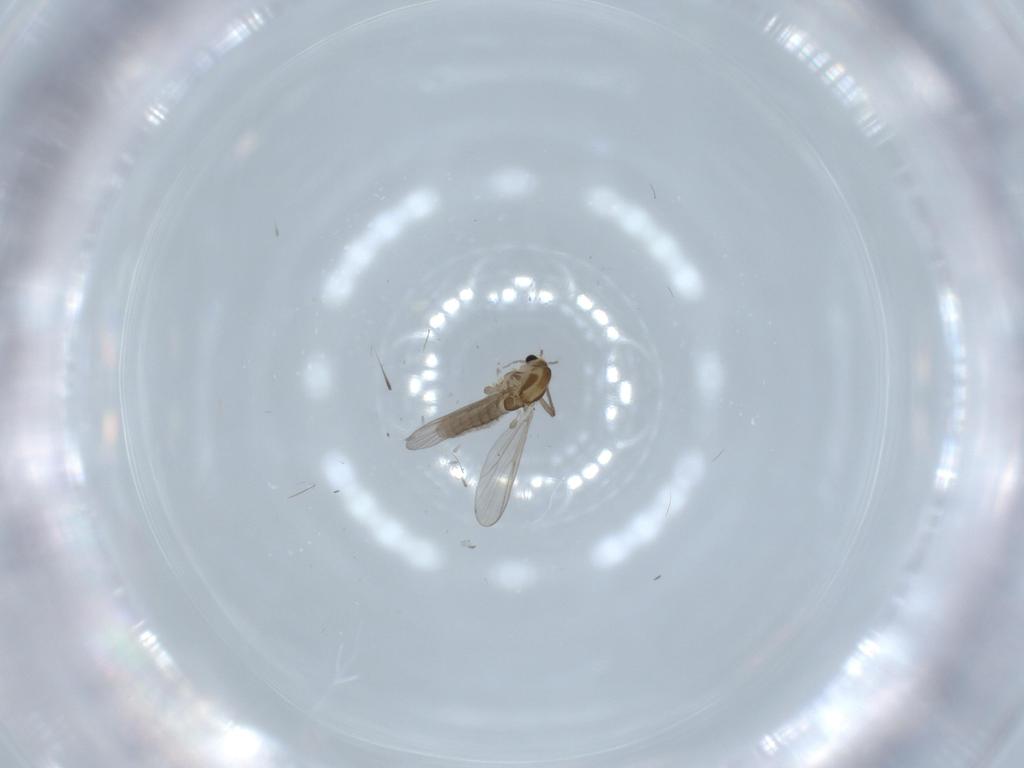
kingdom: Animalia
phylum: Arthropoda
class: Insecta
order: Diptera
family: Chironomidae
